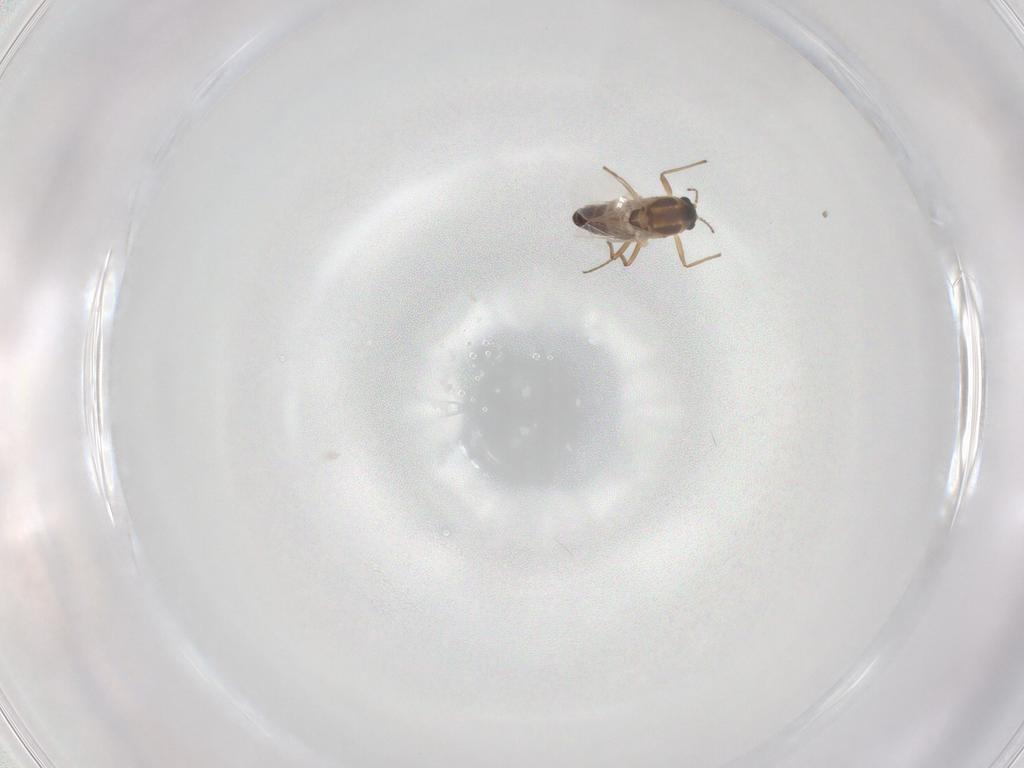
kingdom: Animalia
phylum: Arthropoda
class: Insecta
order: Diptera
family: Chironomidae
